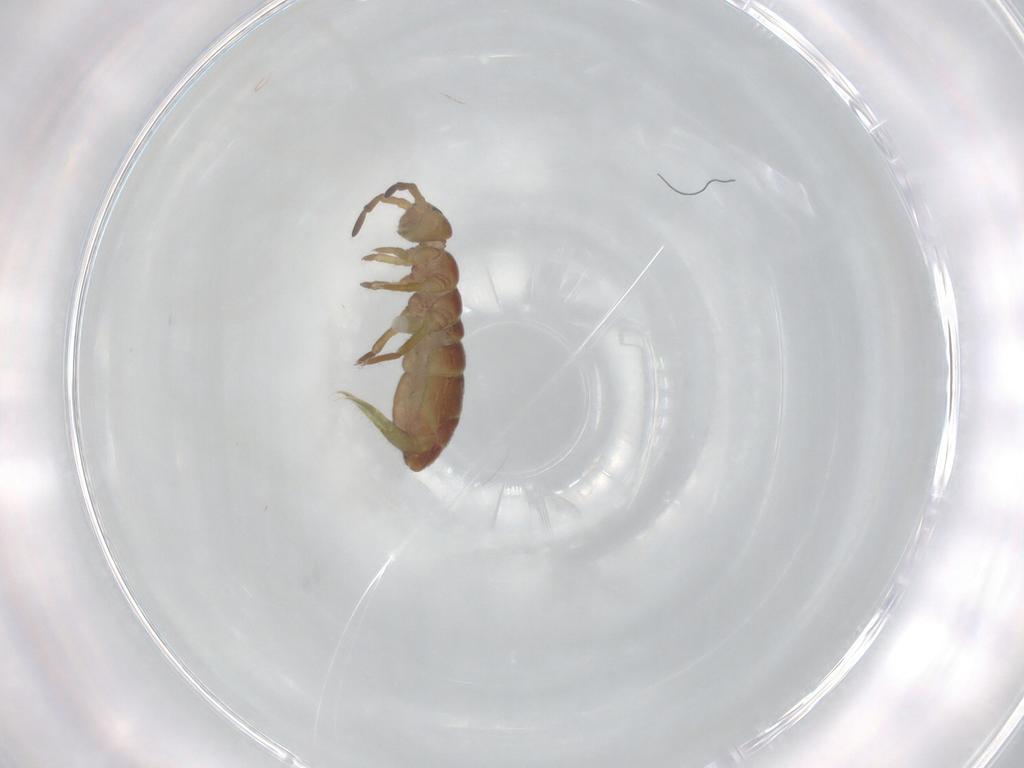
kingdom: Animalia
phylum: Arthropoda
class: Collembola
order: Entomobryomorpha
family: Isotomidae
